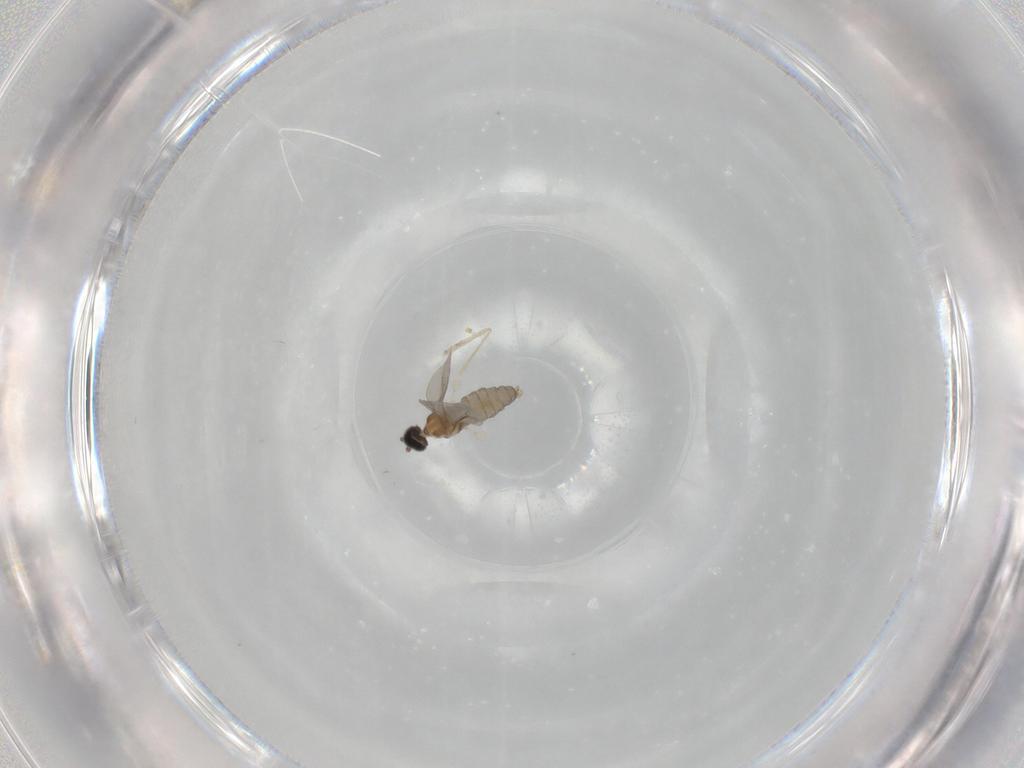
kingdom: Animalia
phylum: Arthropoda
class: Insecta
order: Diptera
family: Cecidomyiidae
